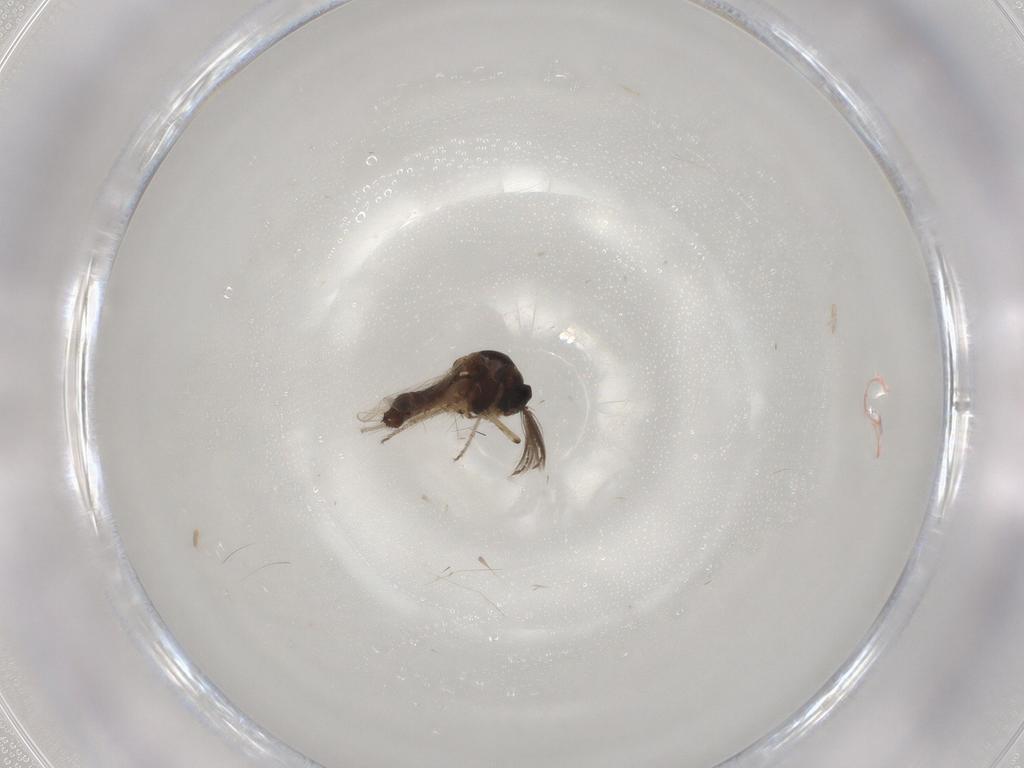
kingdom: Animalia
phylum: Arthropoda
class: Insecta
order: Diptera
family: Ceratopogonidae
